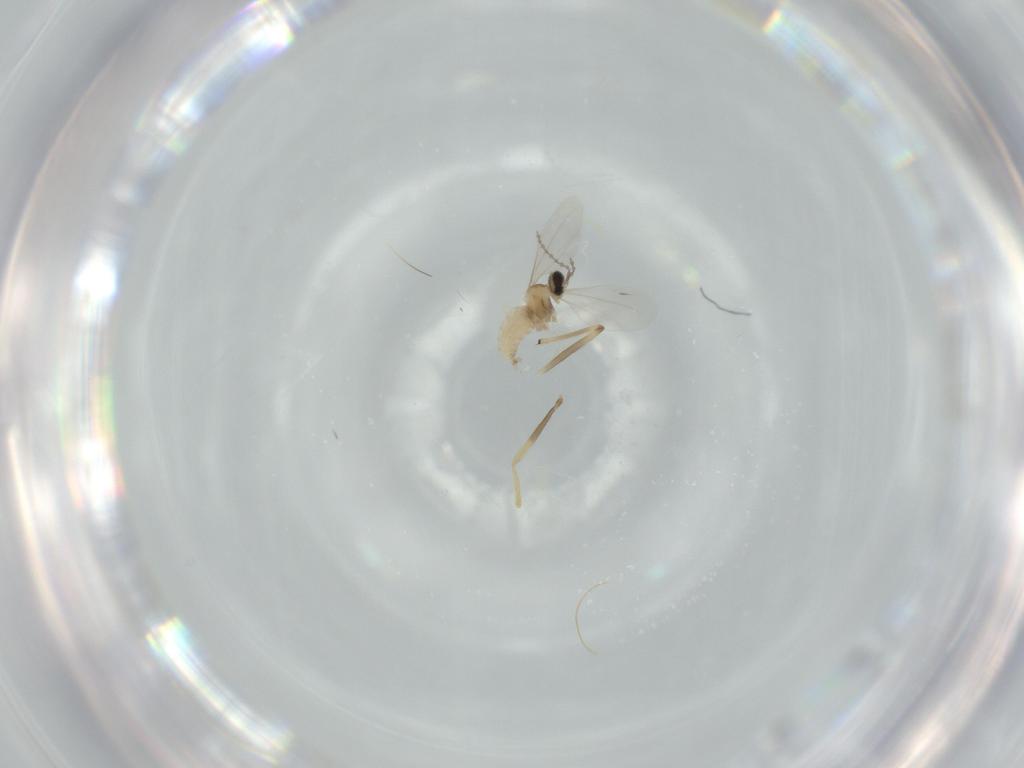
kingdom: Animalia
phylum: Arthropoda
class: Insecta
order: Diptera
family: Cecidomyiidae
